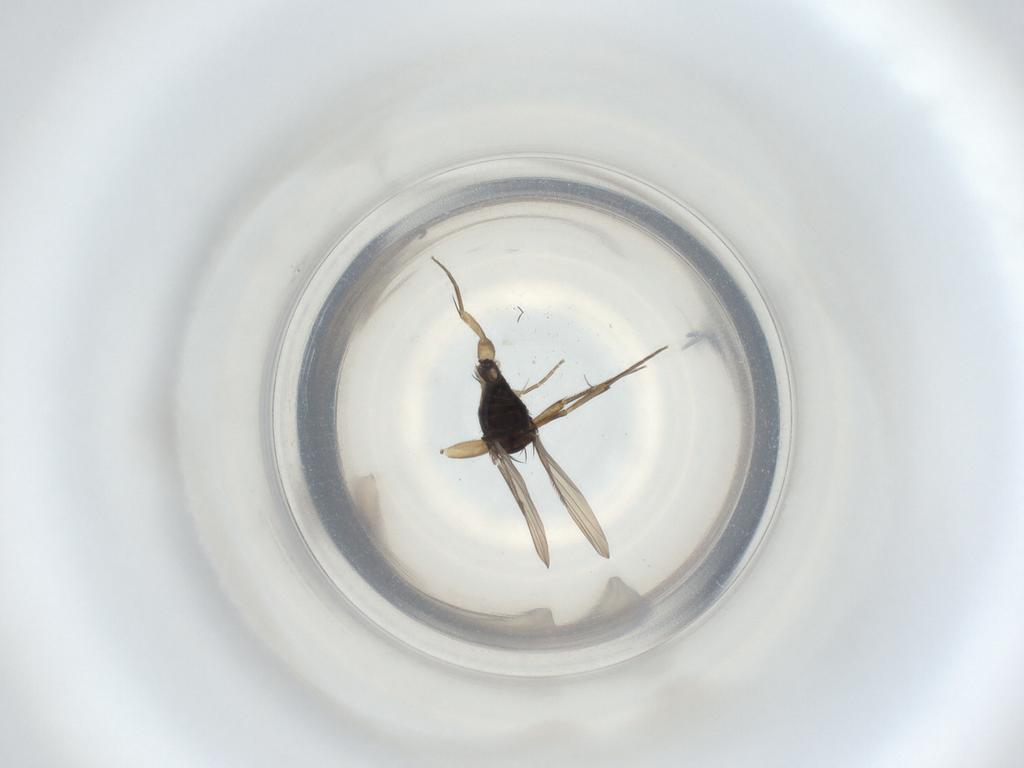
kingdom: Animalia
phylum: Arthropoda
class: Insecta
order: Diptera
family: Phoridae
